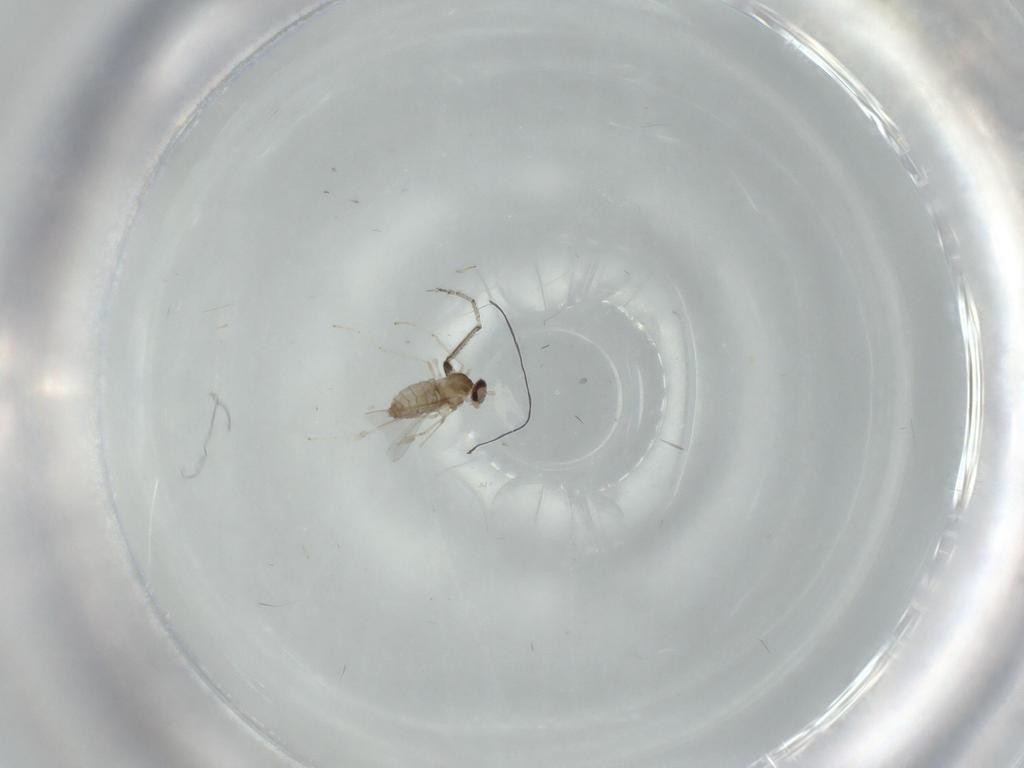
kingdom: Animalia
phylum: Arthropoda
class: Insecta
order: Diptera
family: Ceratopogonidae
